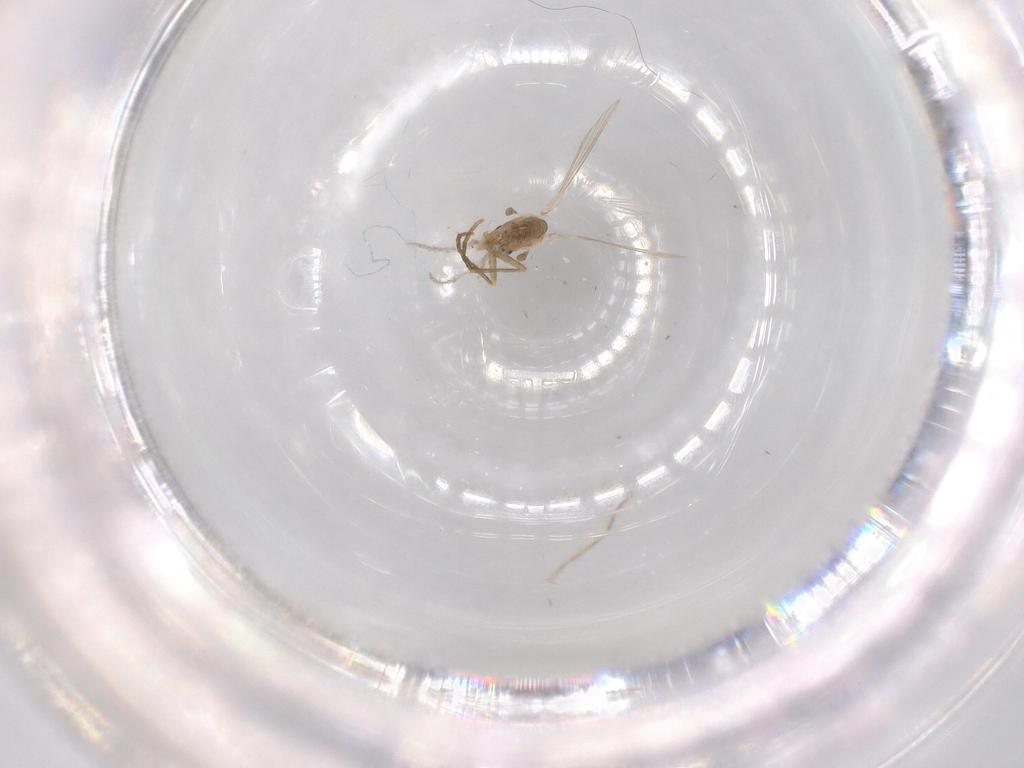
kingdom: Animalia
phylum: Arthropoda
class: Insecta
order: Diptera
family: Psychodidae
